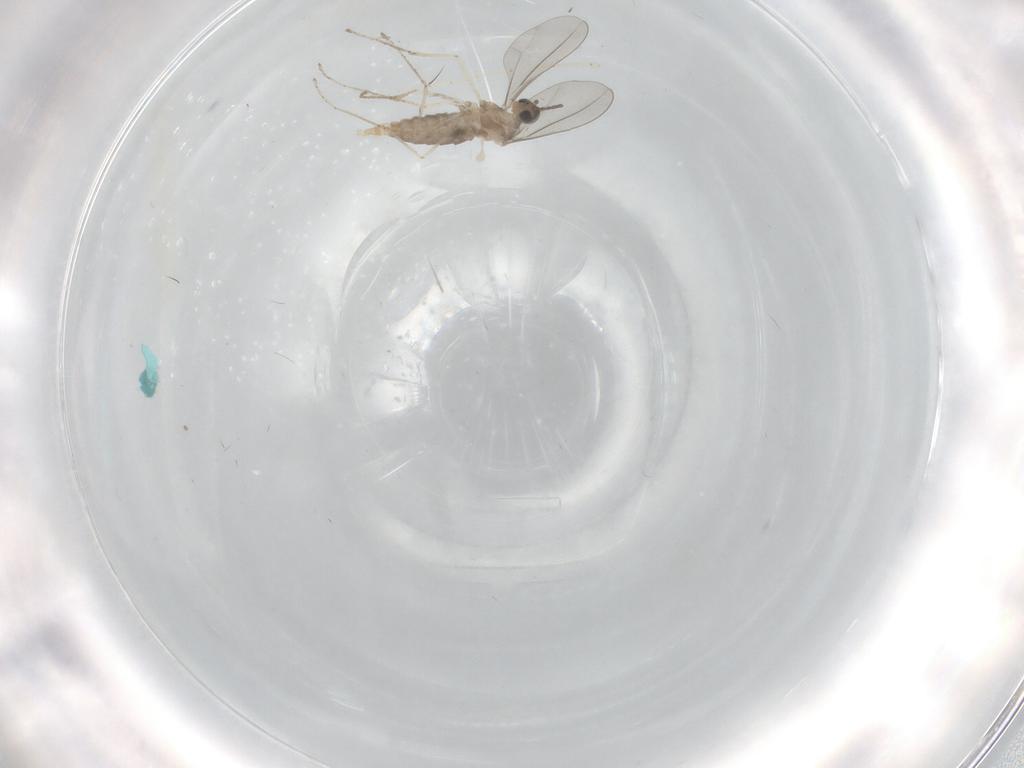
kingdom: Animalia
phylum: Arthropoda
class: Insecta
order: Diptera
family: Cecidomyiidae
